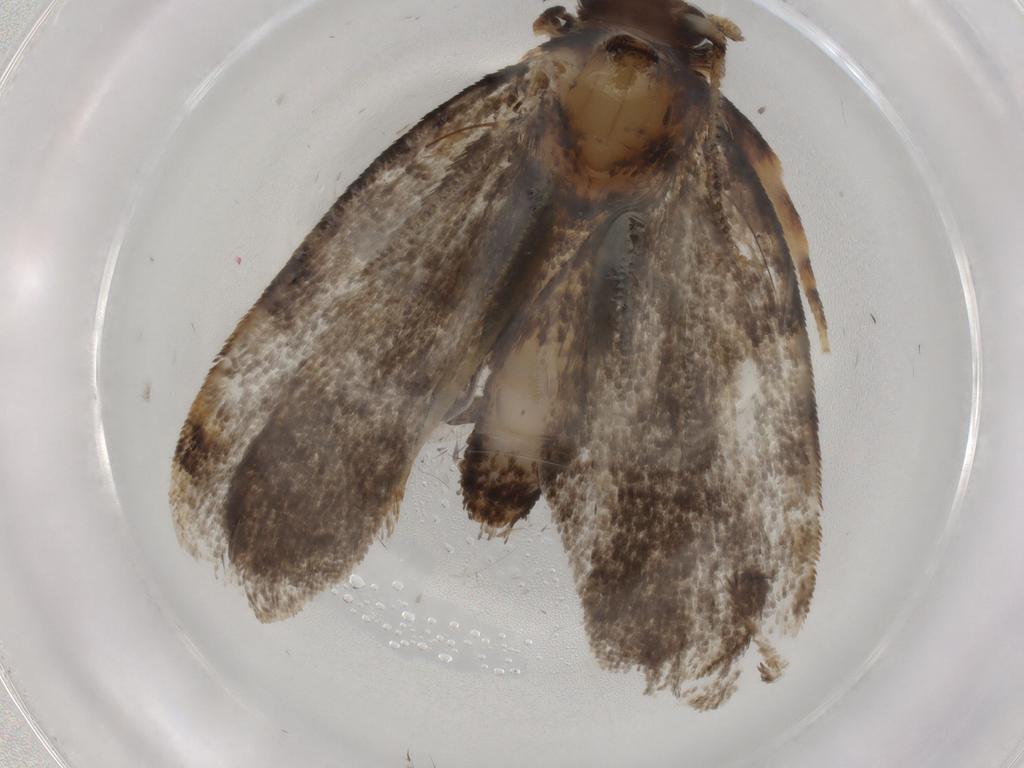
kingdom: Animalia
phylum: Arthropoda
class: Insecta
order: Lepidoptera
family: Tineidae
